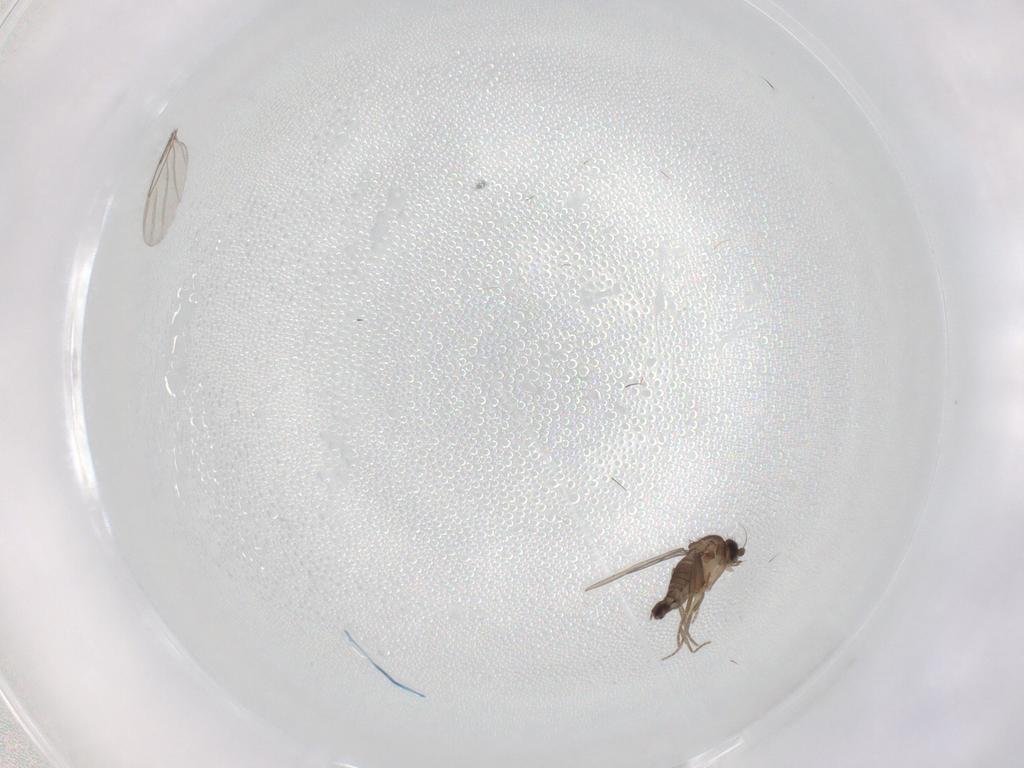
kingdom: Animalia
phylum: Arthropoda
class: Insecta
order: Diptera
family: Phoridae
